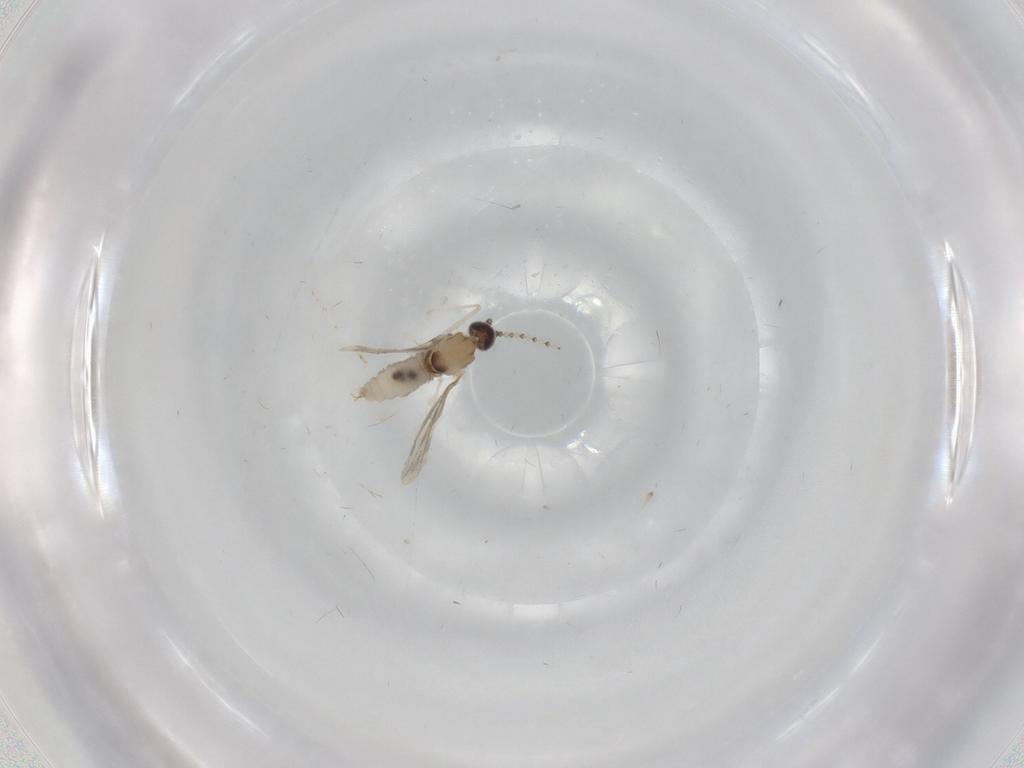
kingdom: Animalia
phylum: Arthropoda
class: Insecta
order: Diptera
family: Cecidomyiidae
